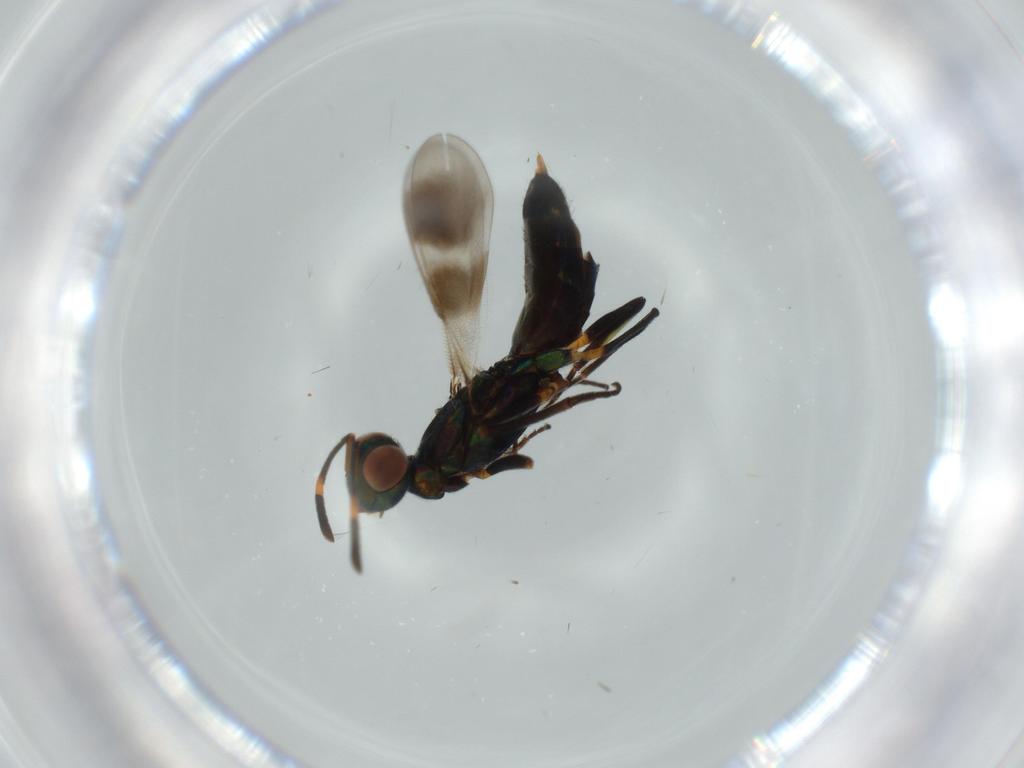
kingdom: Animalia
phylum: Arthropoda
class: Insecta
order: Hymenoptera
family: Eupelmidae
